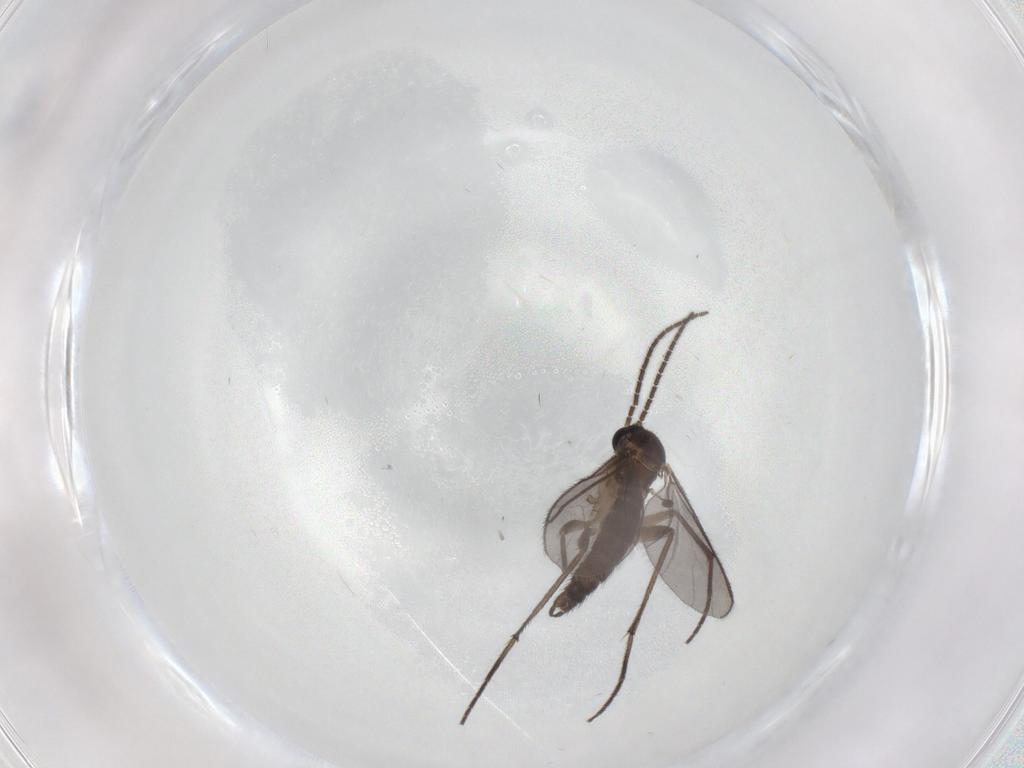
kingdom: Animalia
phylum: Arthropoda
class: Insecta
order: Diptera
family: Sciaridae
